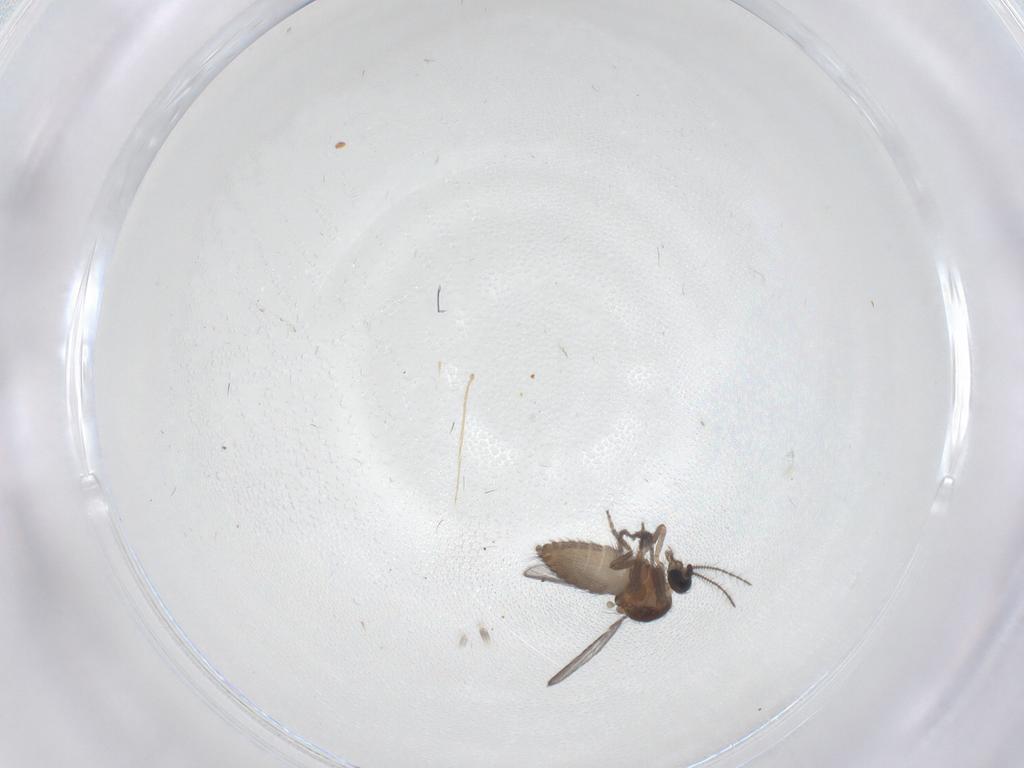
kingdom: Animalia
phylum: Arthropoda
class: Insecta
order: Diptera
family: Ceratopogonidae
